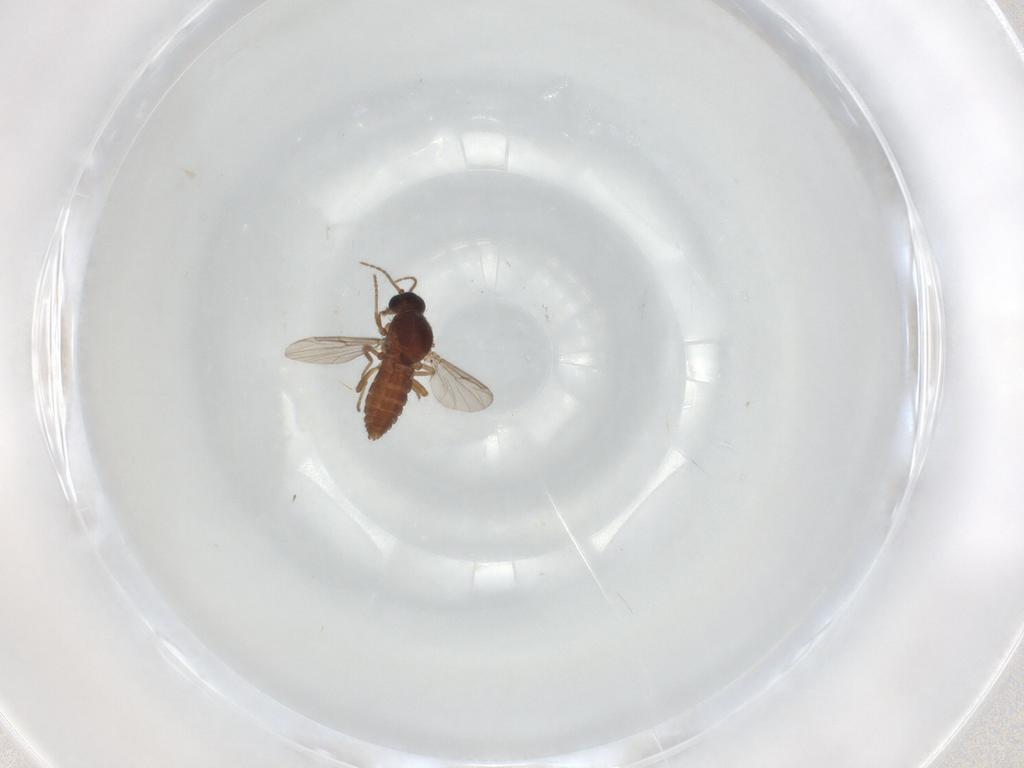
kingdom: Animalia
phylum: Arthropoda
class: Insecta
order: Diptera
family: Ceratopogonidae
